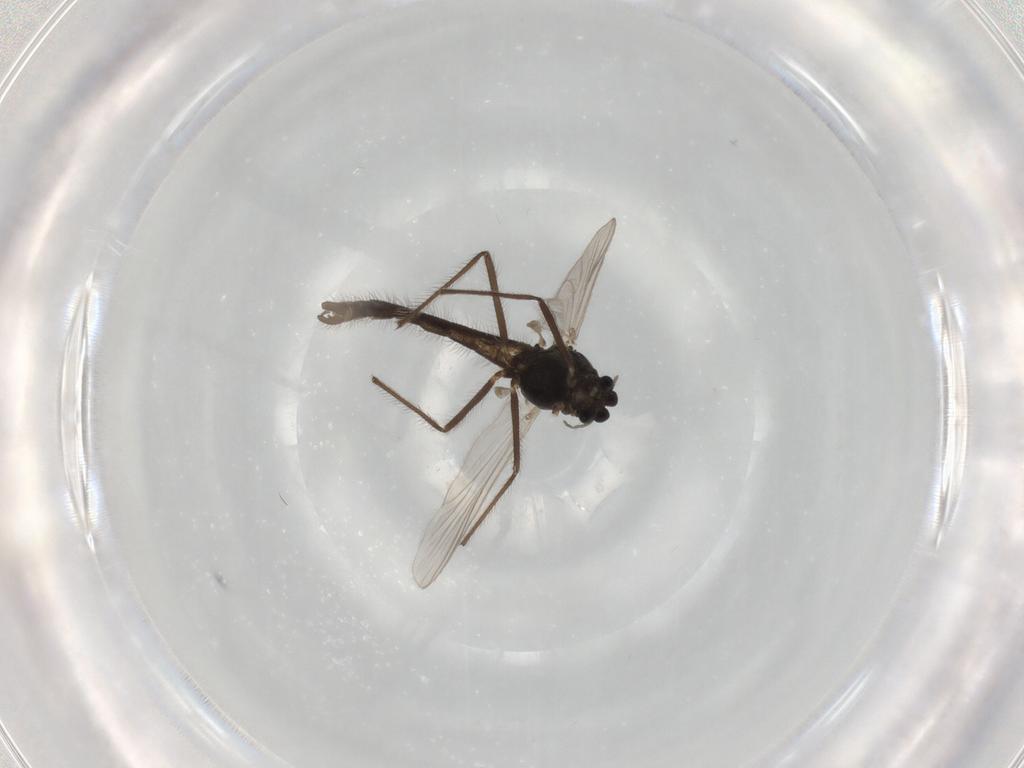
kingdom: Animalia
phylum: Arthropoda
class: Insecta
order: Diptera
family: Chironomidae
